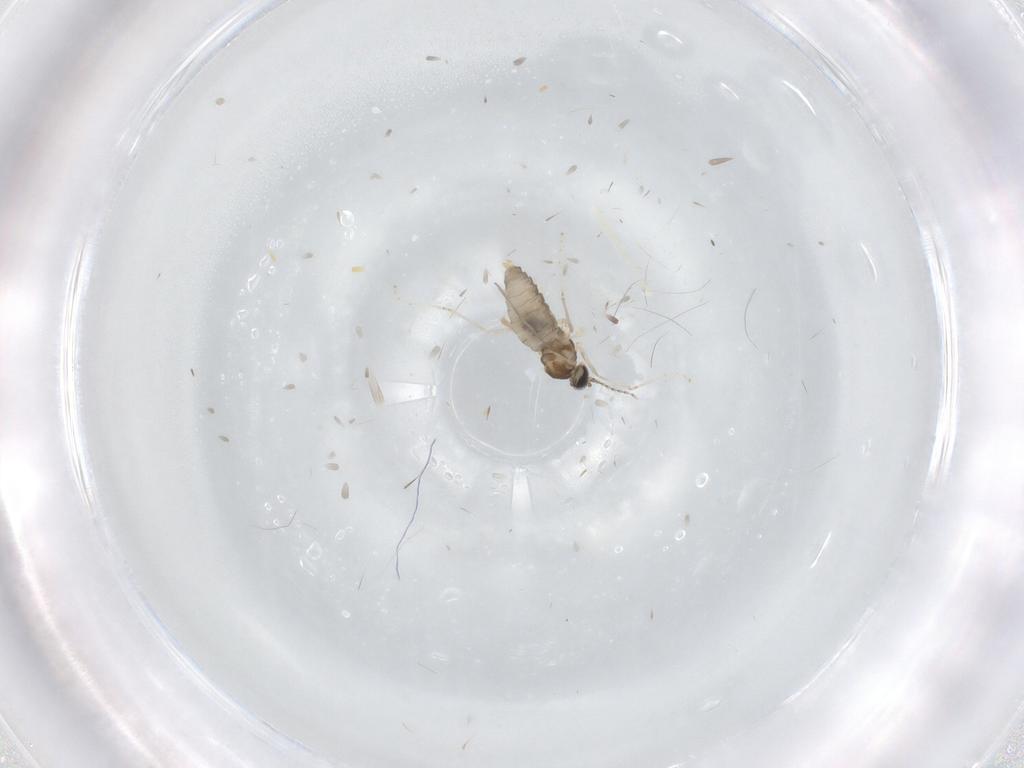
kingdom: Animalia
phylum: Arthropoda
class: Insecta
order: Diptera
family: Cecidomyiidae
